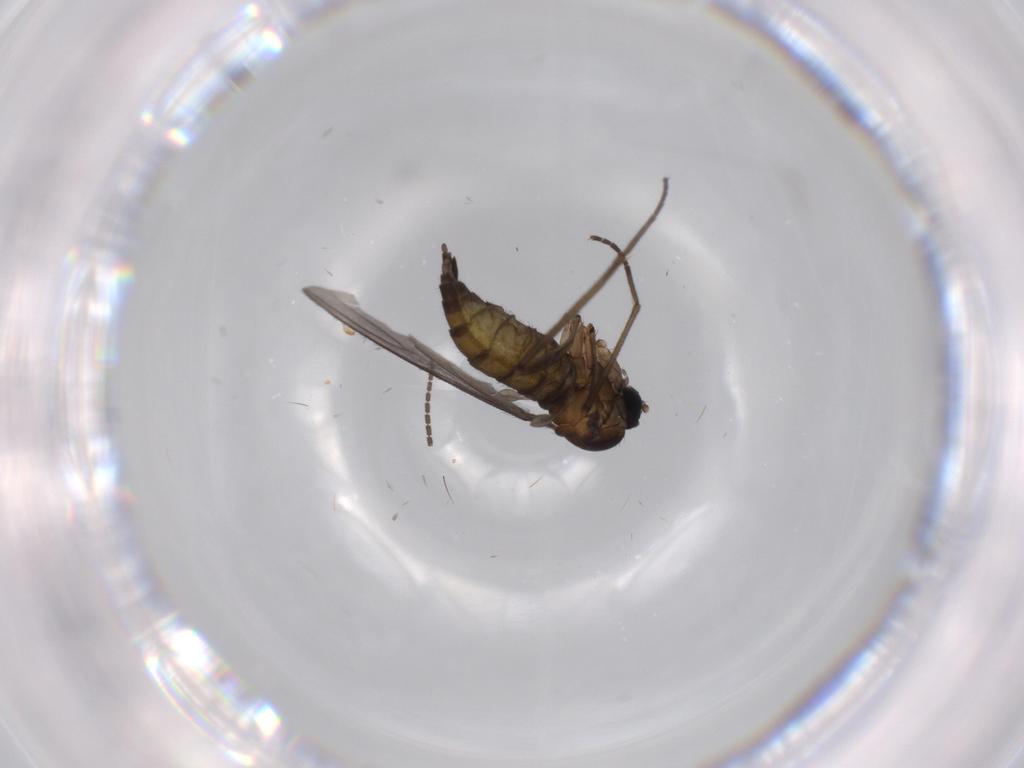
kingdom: Animalia
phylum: Arthropoda
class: Insecta
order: Diptera
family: Sciaridae
